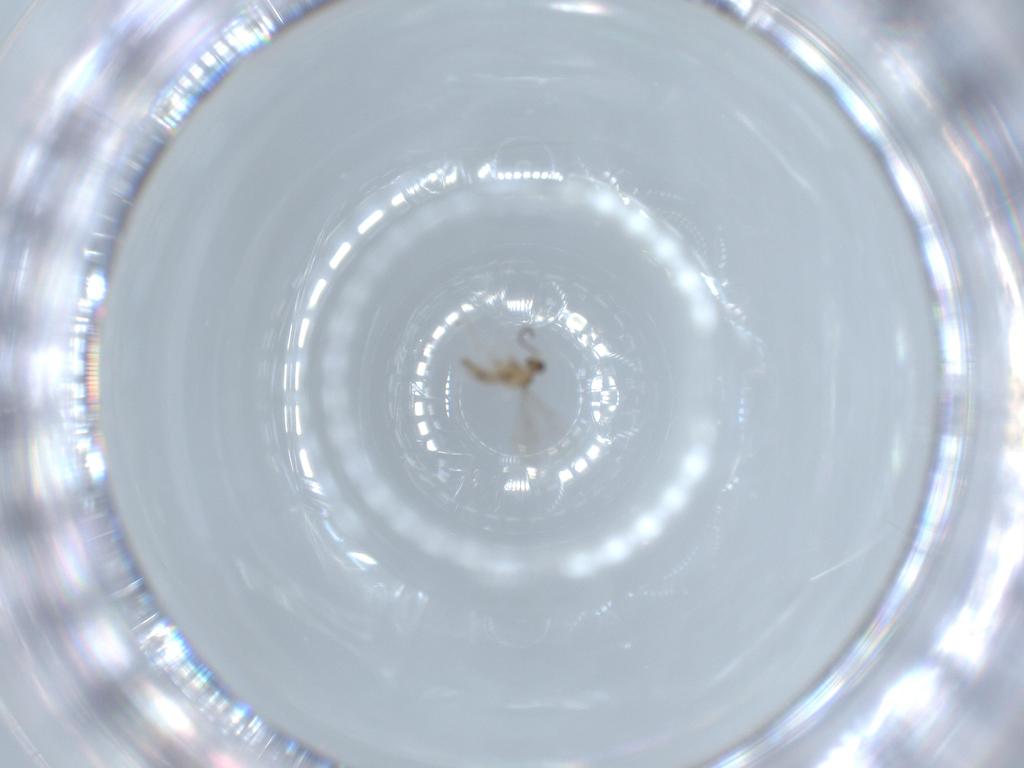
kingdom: Animalia
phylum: Arthropoda
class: Insecta
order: Diptera
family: Cecidomyiidae
